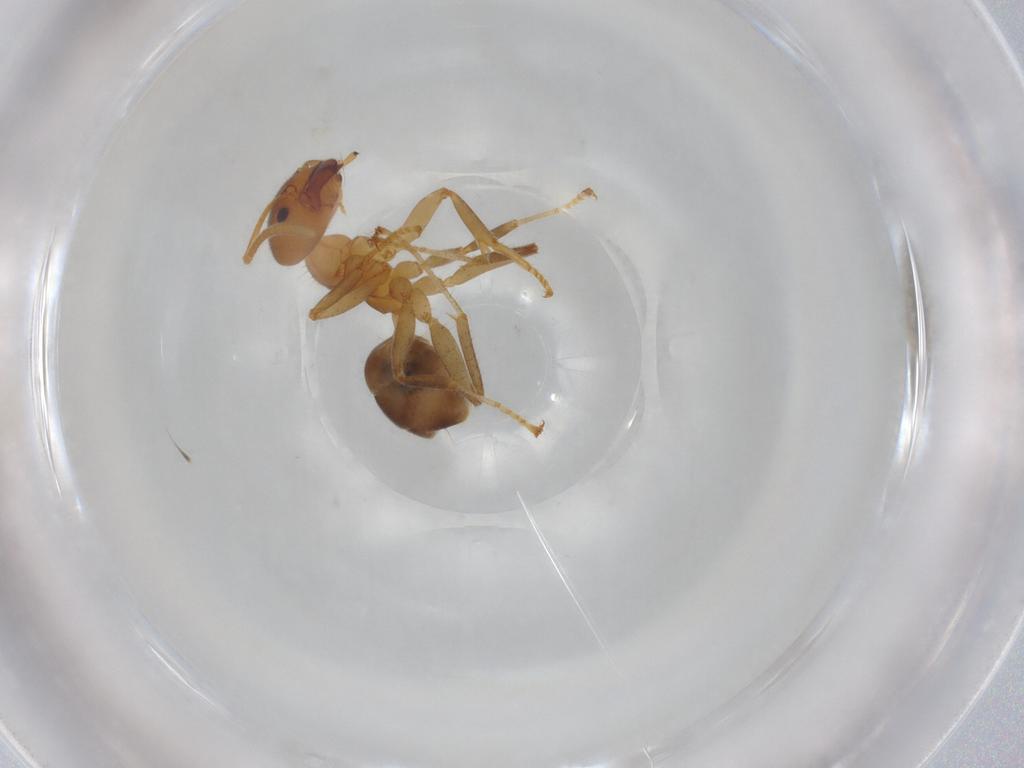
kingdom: Animalia
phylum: Arthropoda
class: Insecta
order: Hymenoptera
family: Formicidae
